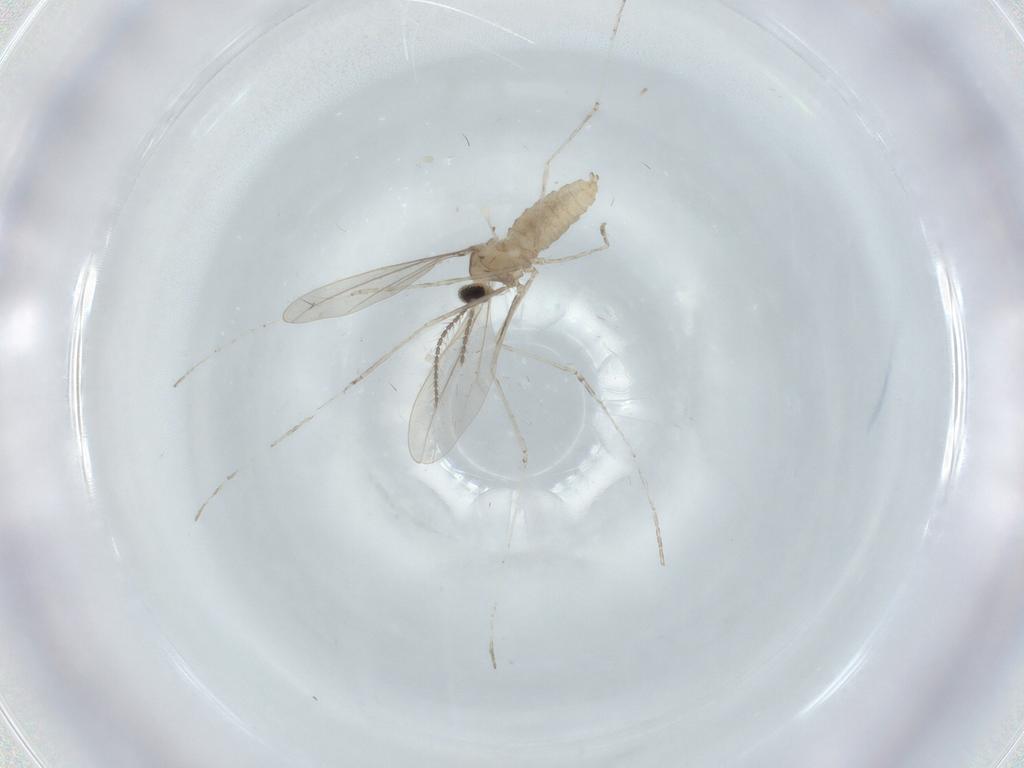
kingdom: Animalia
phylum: Arthropoda
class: Insecta
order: Diptera
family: Cecidomyiidae
